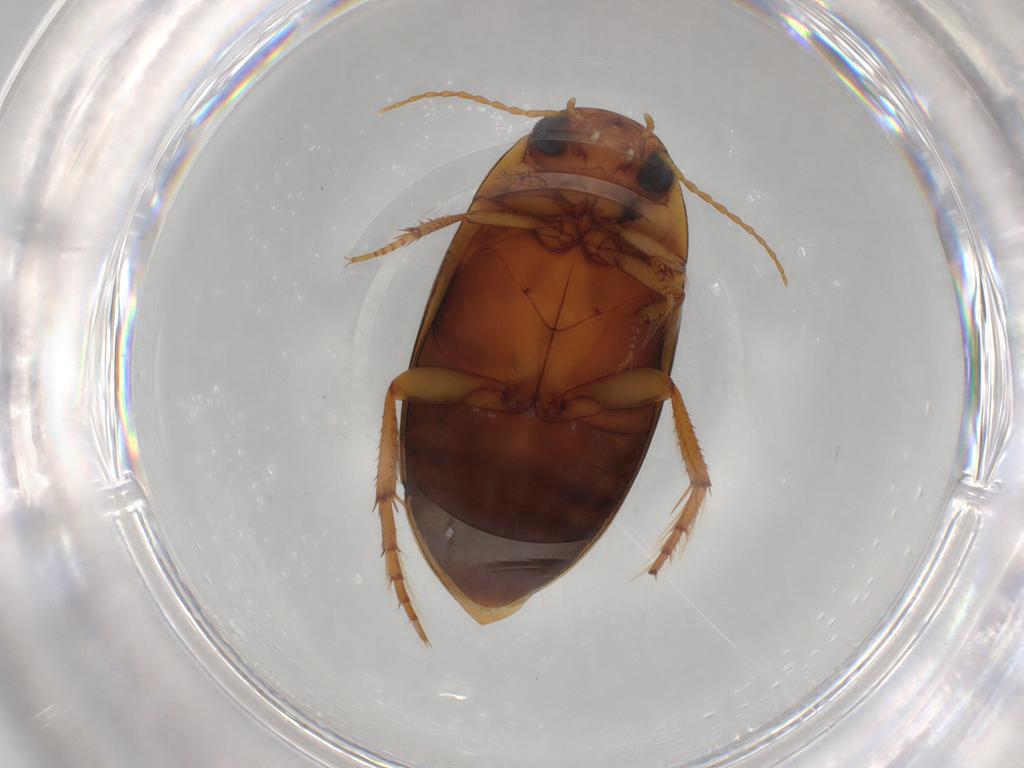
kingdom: Animalia
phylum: Arthropoda
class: Insecta
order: Coleoptera
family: Dytiscidae
